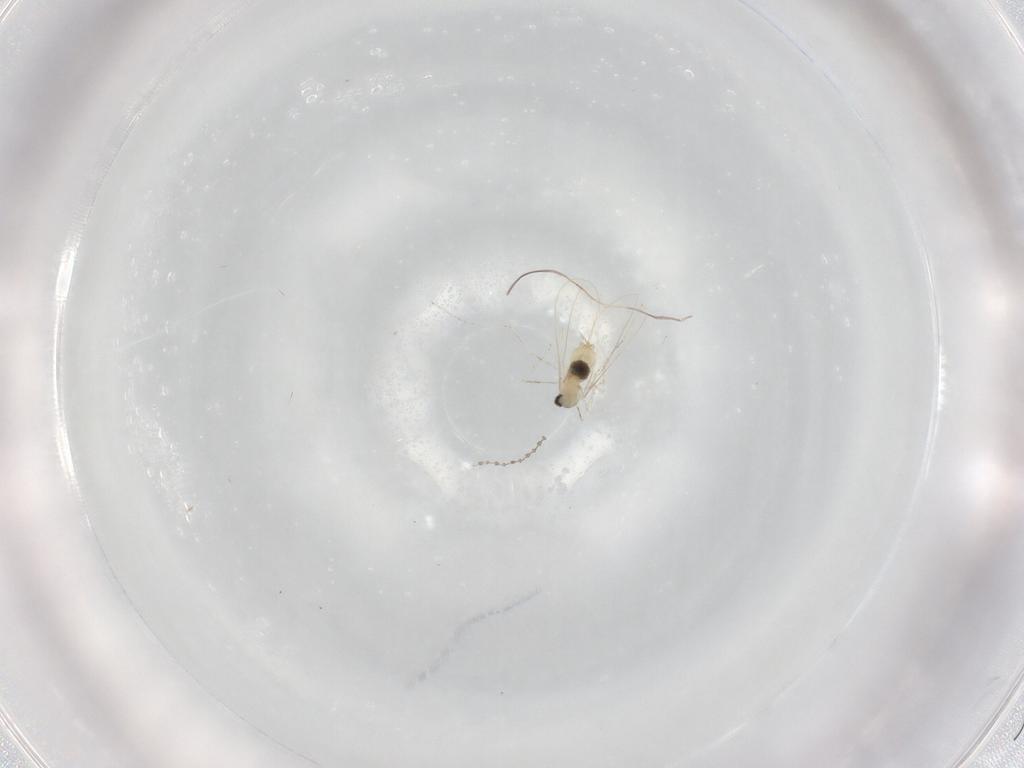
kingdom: Animalia
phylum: Arthropoda
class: Insecta
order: Diptera
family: Cecidomyiidae
